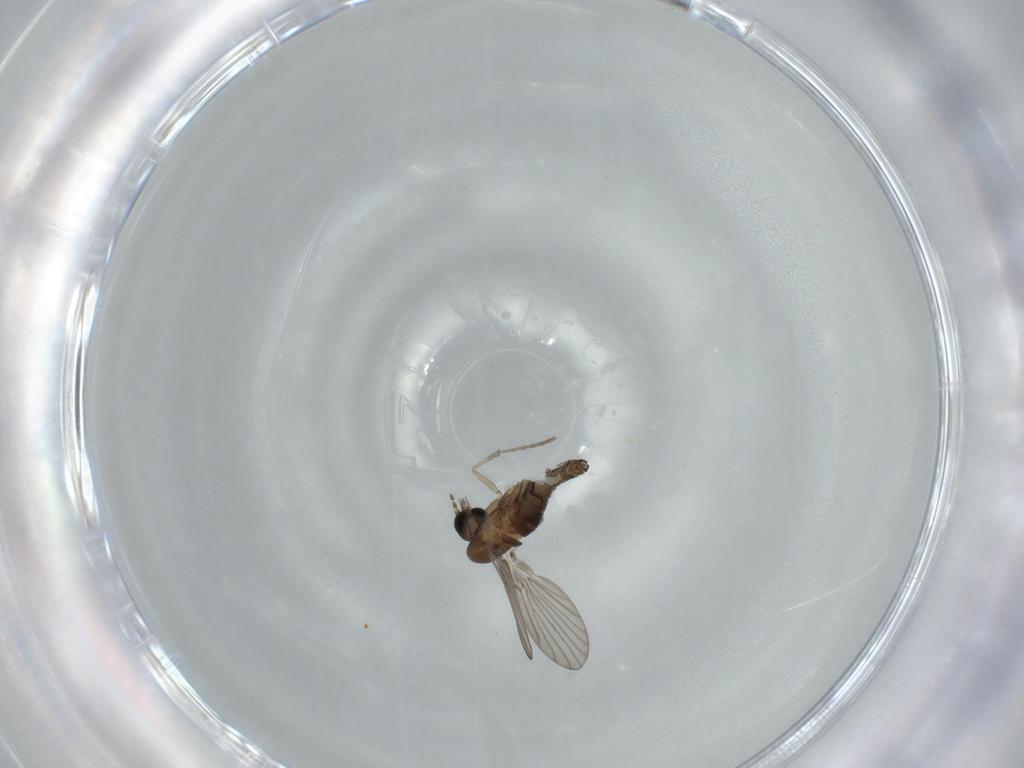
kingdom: Animalia
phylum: Arthropoda
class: Insecta
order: Diptera
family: Psychodidae
